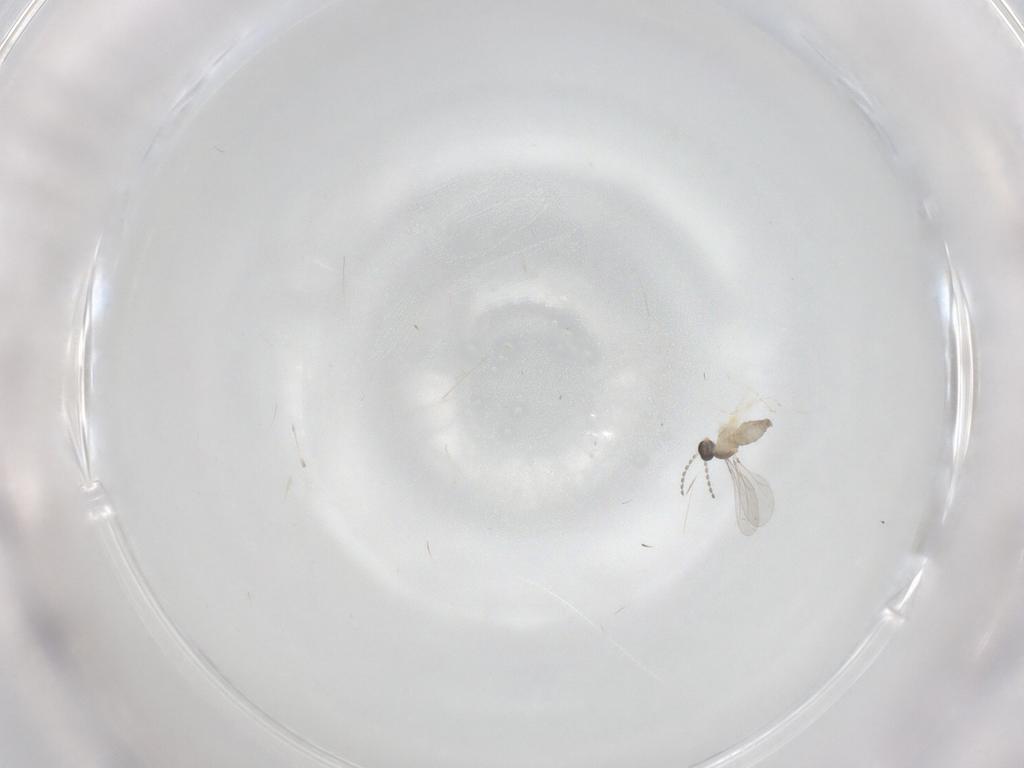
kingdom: Animalia
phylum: Arthropoda
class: Insecta
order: Diptera
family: Cecidomyiidae
